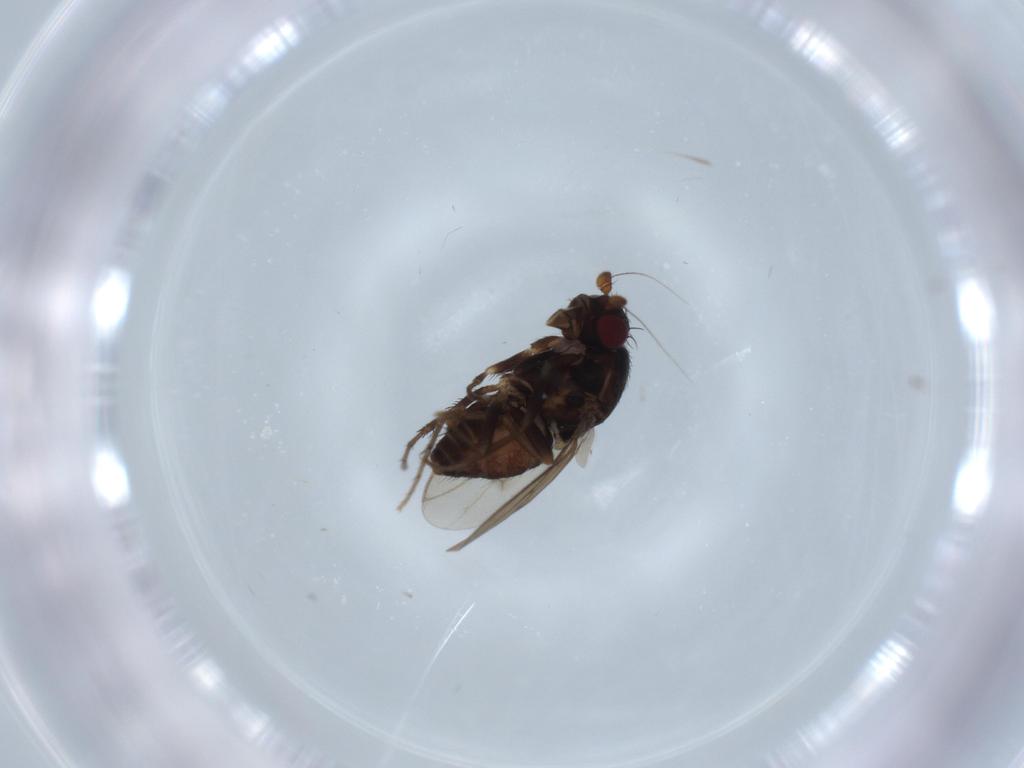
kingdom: Animalia
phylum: Arthropoda
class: Insecta
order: Diptera
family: Sphaeroceridae
